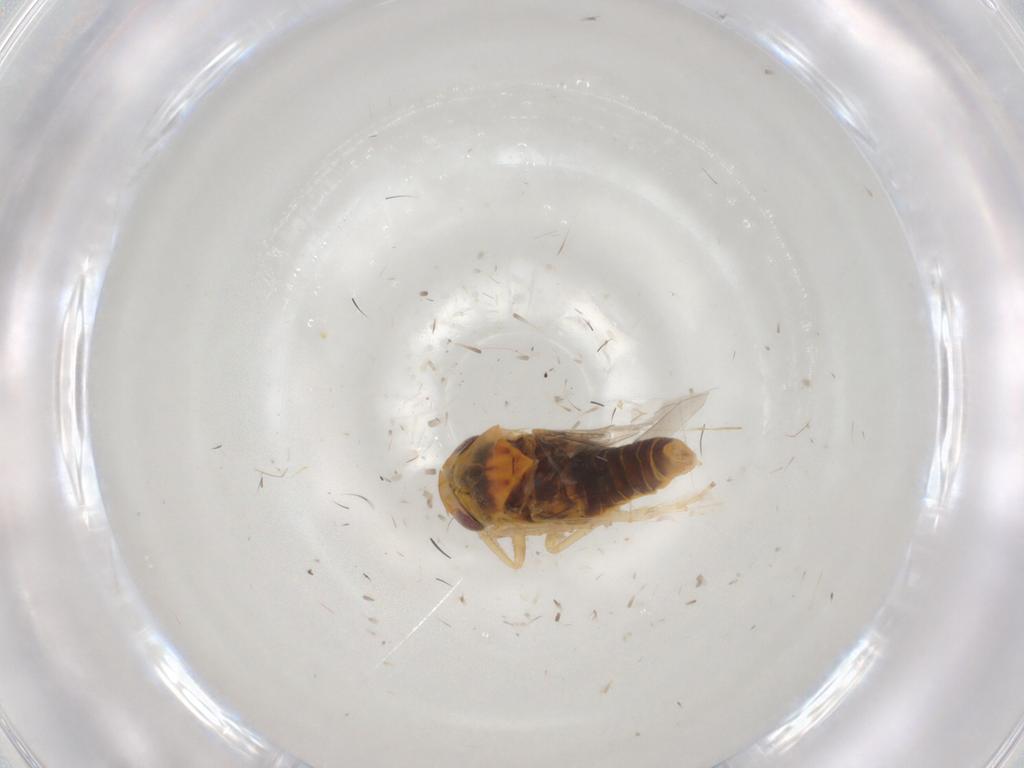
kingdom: Animalia
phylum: Arthropoda
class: Insecta
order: Hemiptera
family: Cicadellidae
